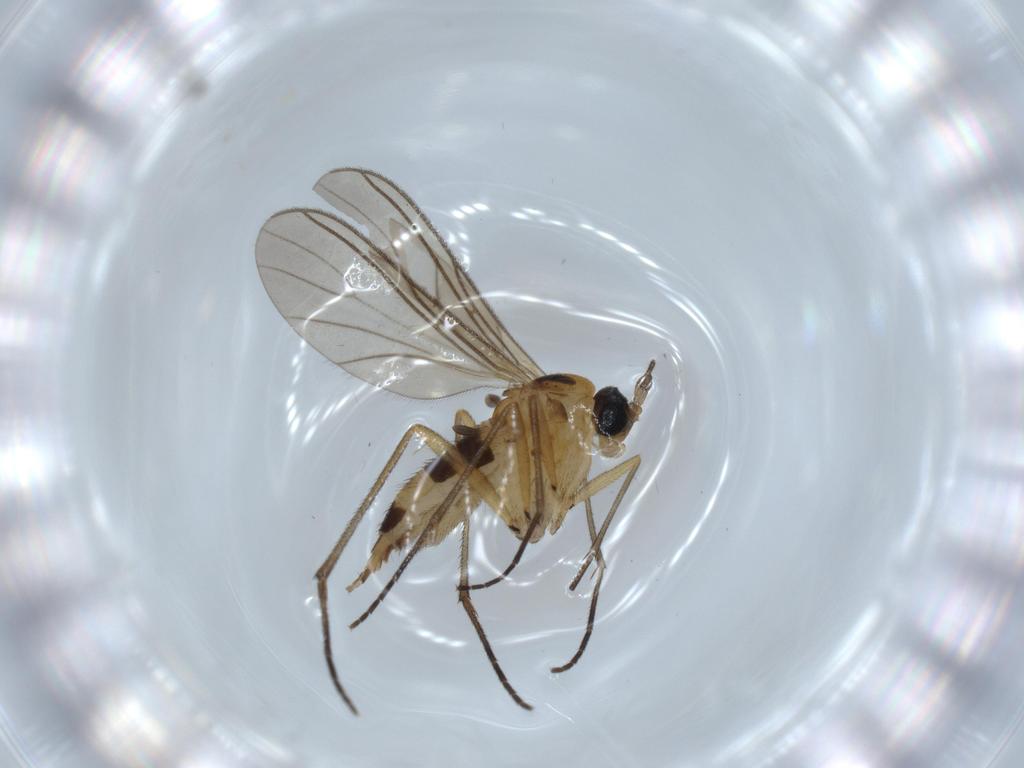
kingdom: Animalia
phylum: Arthropoda
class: Insecta
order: Diptera
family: Sciaridae
